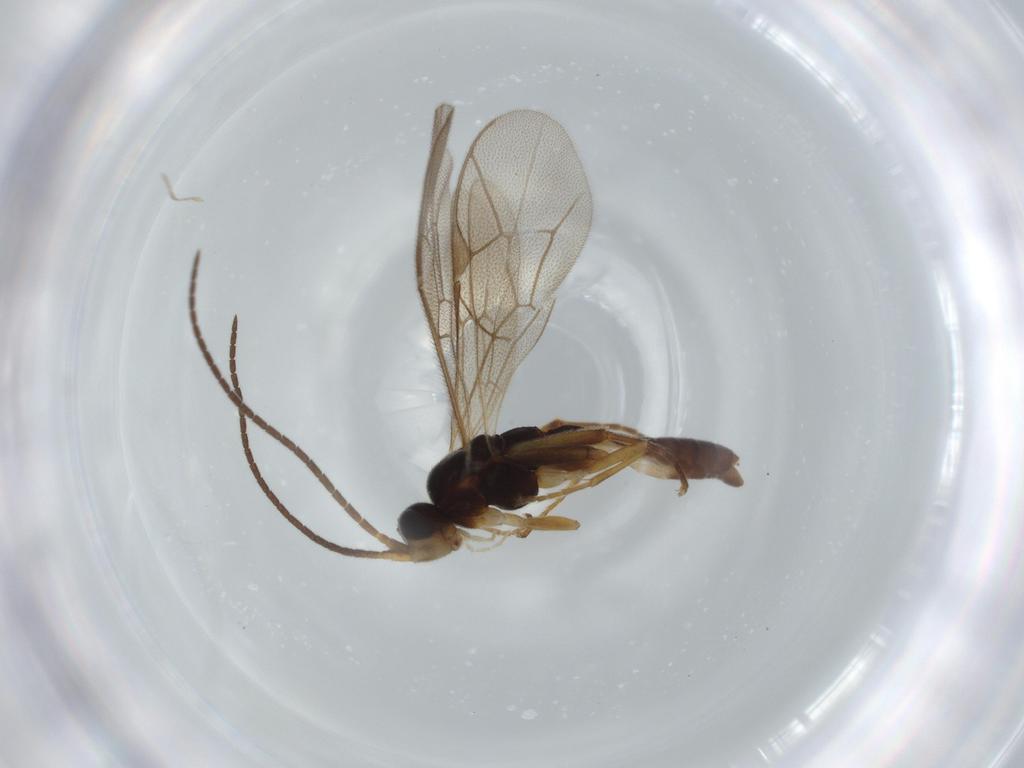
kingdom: Animalia
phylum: Arthropoda
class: Insecta
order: Hymenoptera
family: Ichneumonidae
